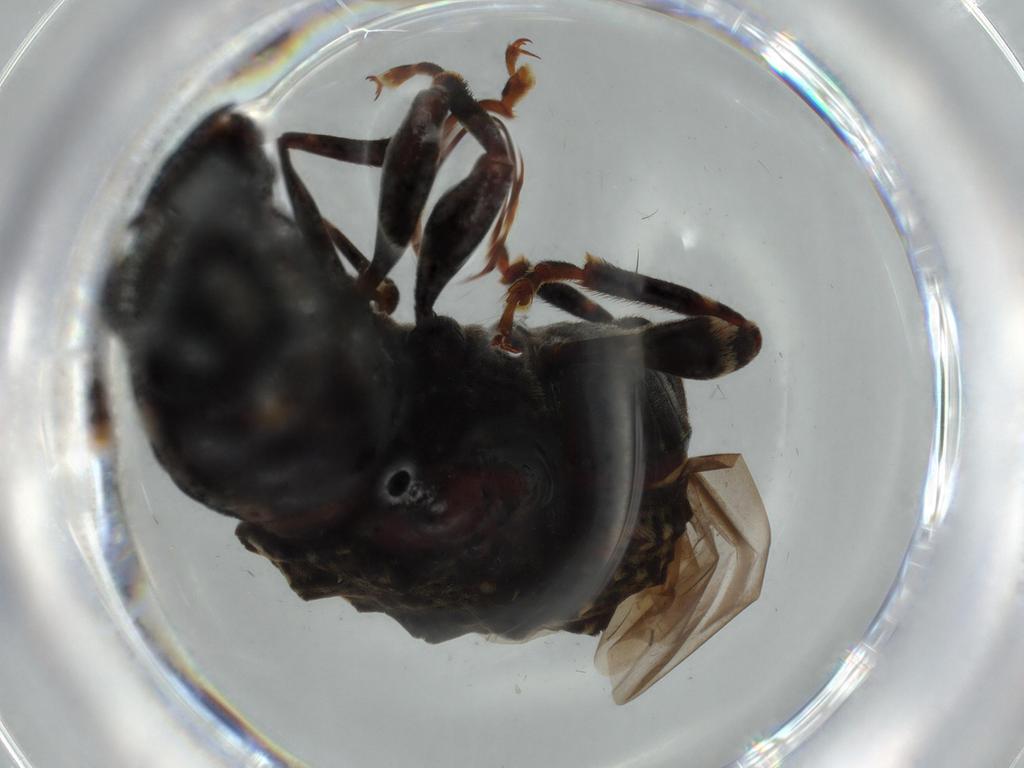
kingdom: Animalia
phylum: Arthropoda
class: Insecta
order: Coleoptera
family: Anthribidae
